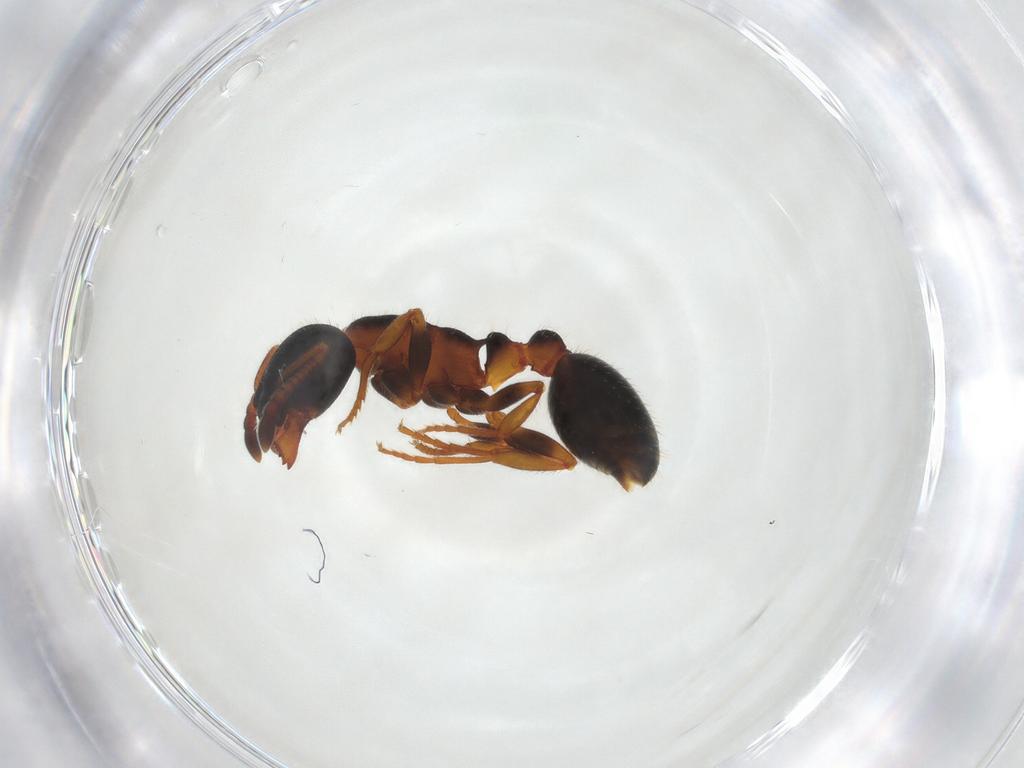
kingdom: Animalia
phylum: Arthropoda
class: Insecta
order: Hymenoptera
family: Formicidae
